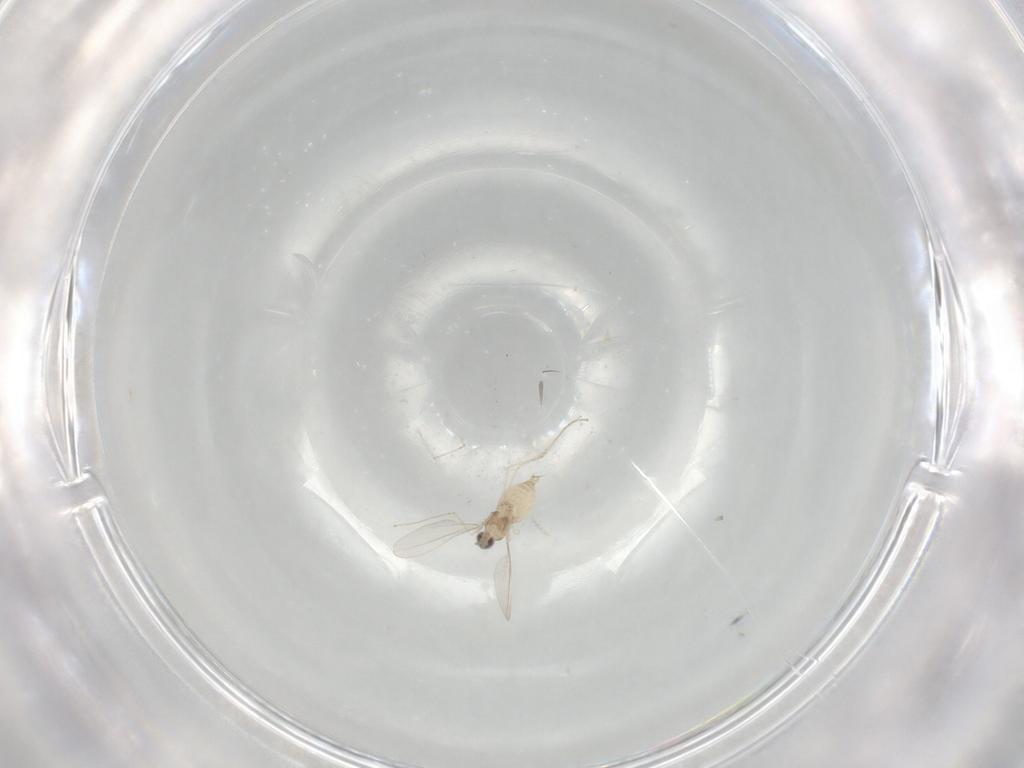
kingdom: Animalia
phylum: Arthropoda
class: Insecta
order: Diptera
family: Cecidomyiidae
